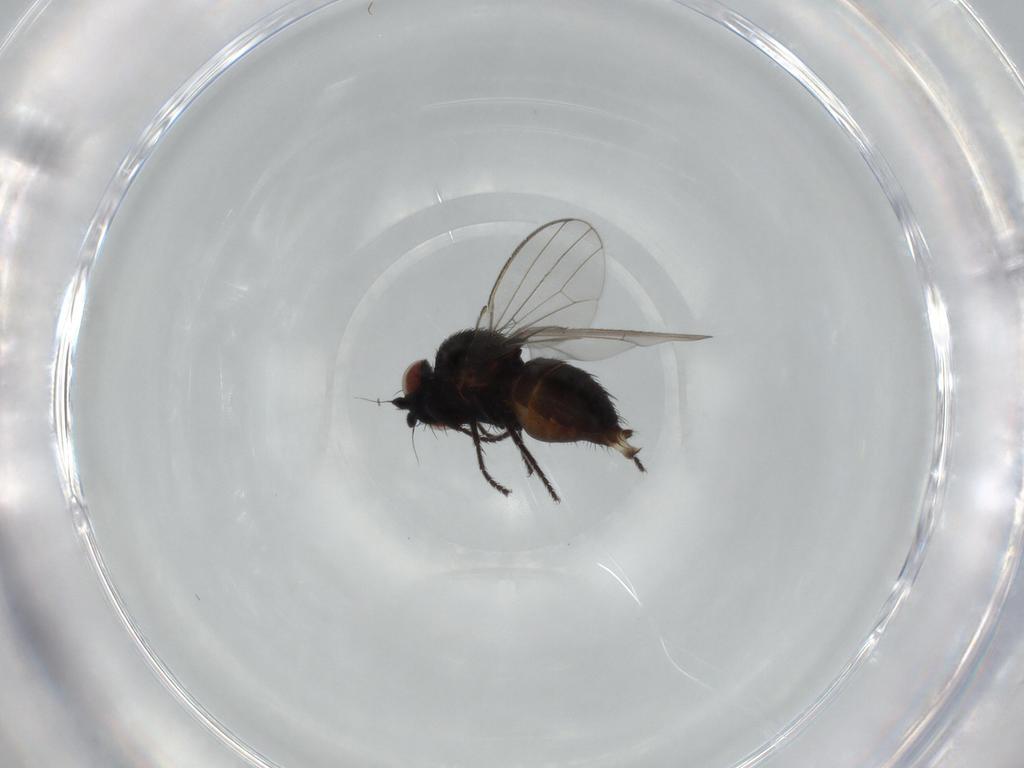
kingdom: Animalia
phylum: Arthropoda
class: Insecta
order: Diptera
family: Milichiidae
